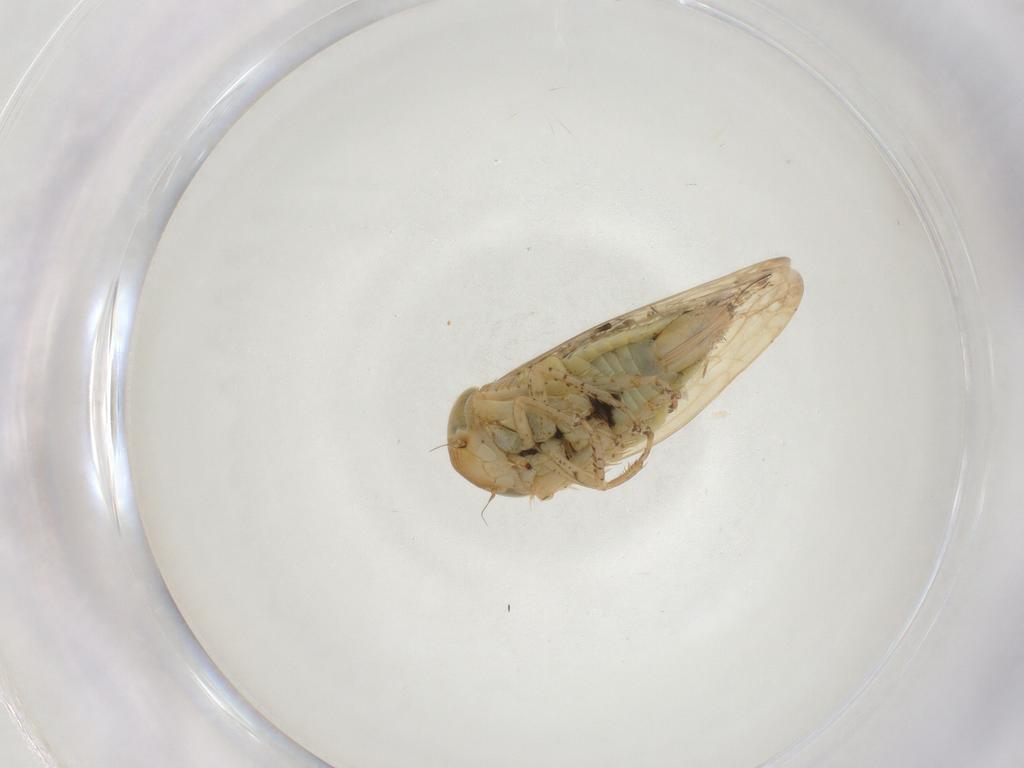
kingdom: Animalia
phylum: Arthropoda
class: Insecta
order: Hemiptera
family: Cicadellidae
